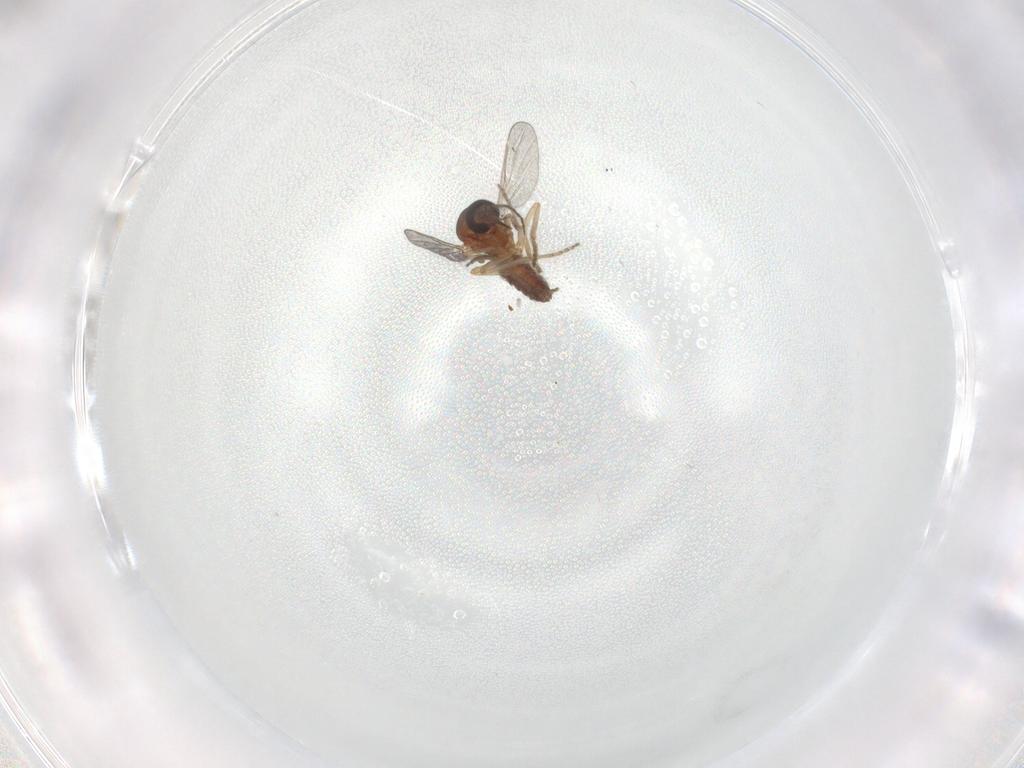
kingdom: Animalia
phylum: Arthropoda
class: Insecta
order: Diptera
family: Ceratopogonidae
